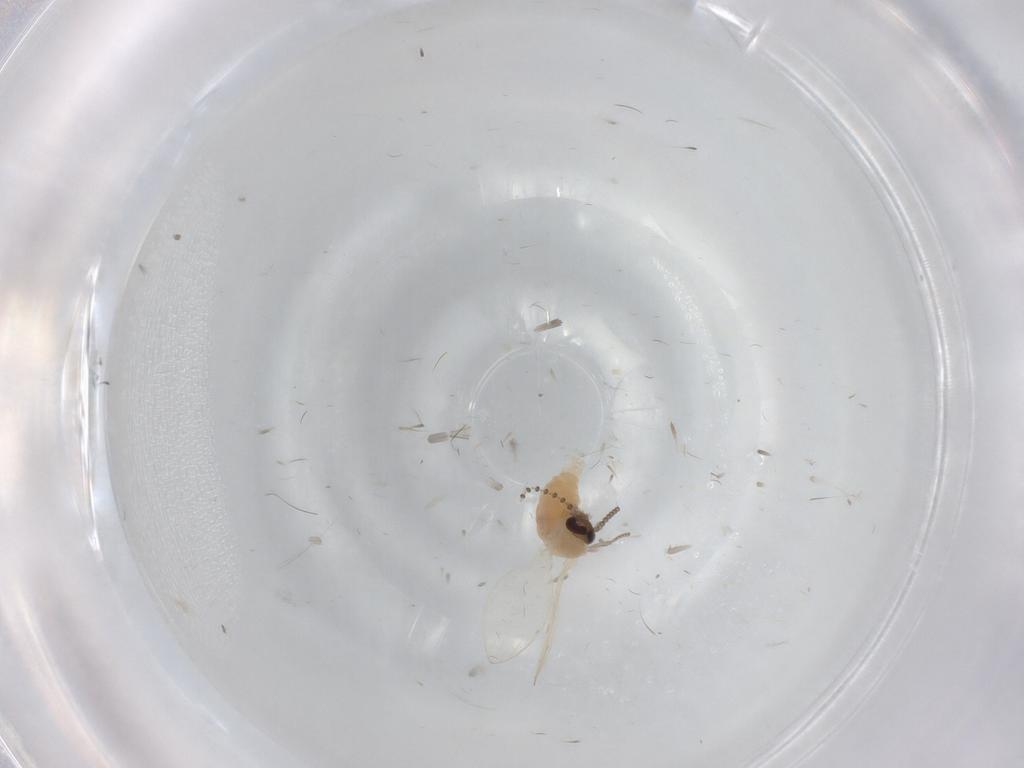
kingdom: Animalia
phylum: Arthropoda
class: Insecta
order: Diptera
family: Psychodidae
